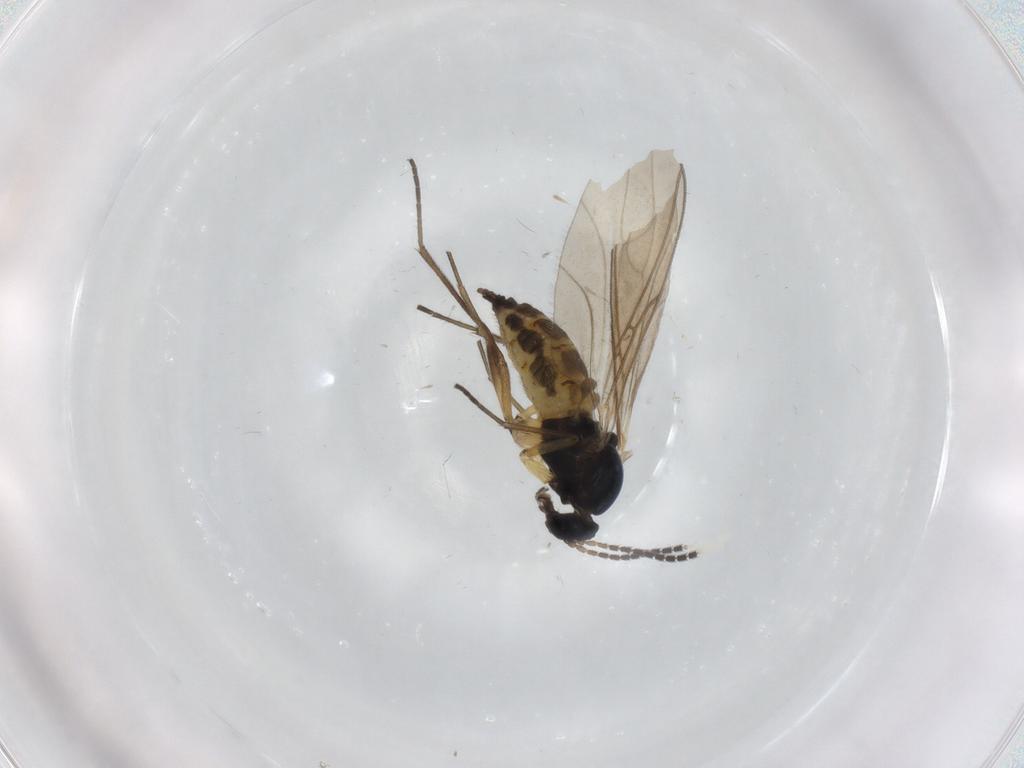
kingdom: Animalia
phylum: Arthropoda
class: Insecta
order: Diptera
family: Sciaridae
